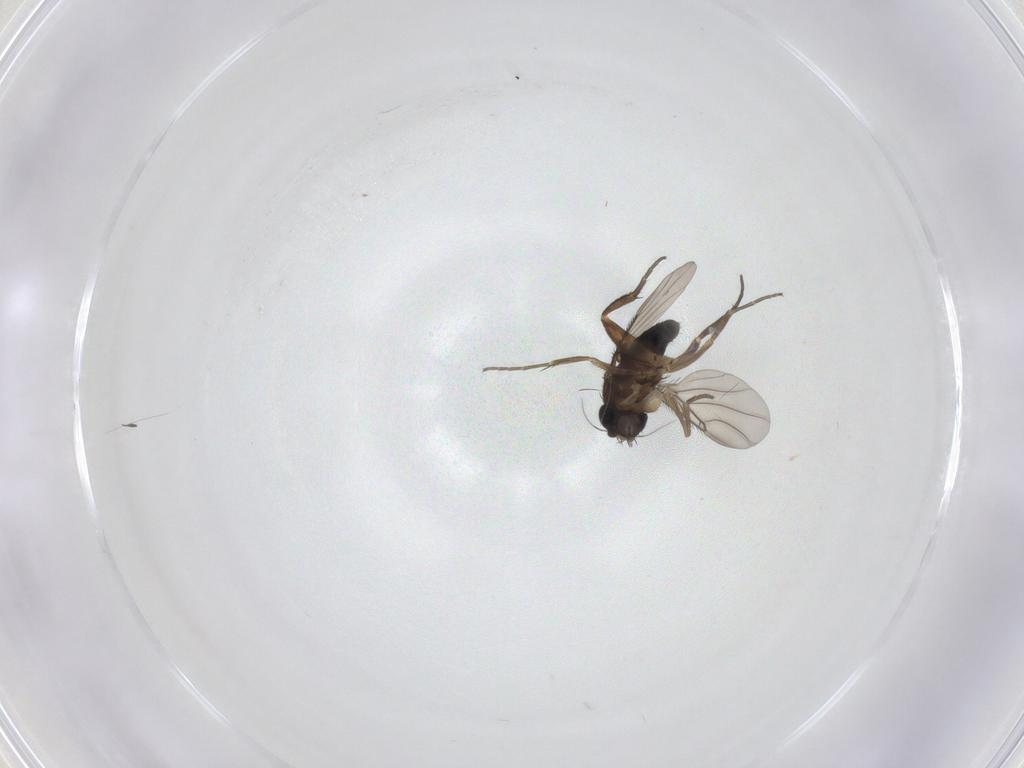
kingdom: Animalia
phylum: Arthropoda
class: Insecta
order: Diptera
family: Phoridae
